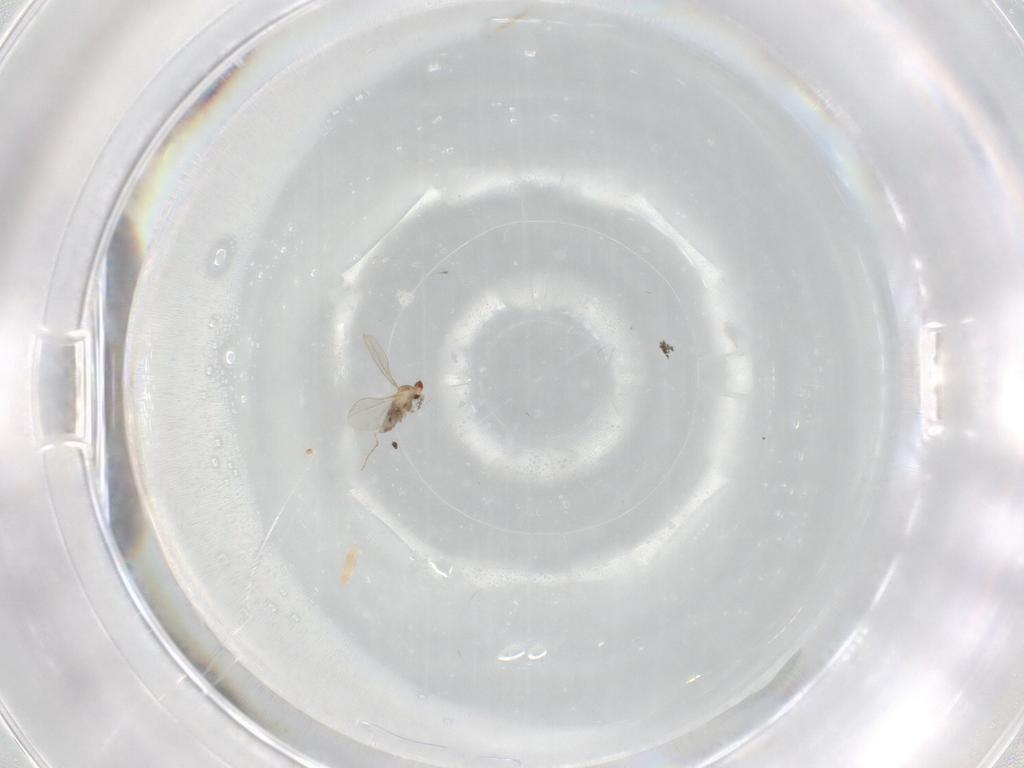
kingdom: Animalia
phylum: Arthropoda
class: Insecta
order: Diptera
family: Cecidomyiidae
